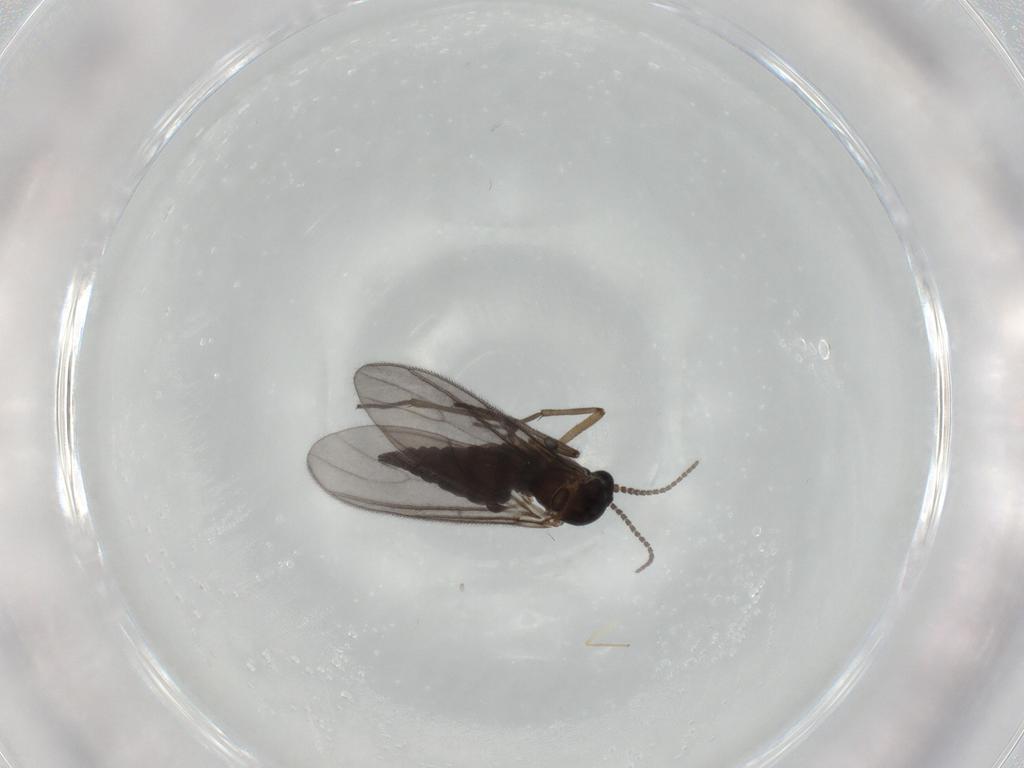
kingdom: Animalia
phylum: Arthropoda
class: Insecta
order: Diptera
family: Sciaridae
